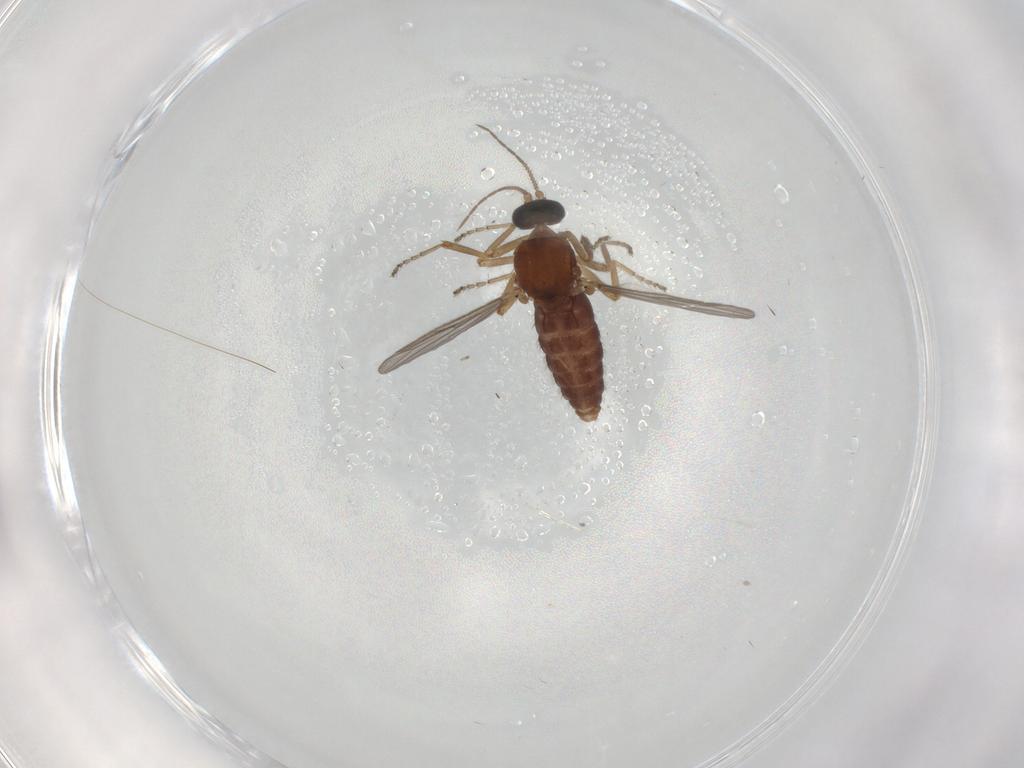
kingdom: Animalia
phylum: Arthropoda
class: Insecta
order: Diptera
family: Ceratopogonidae
